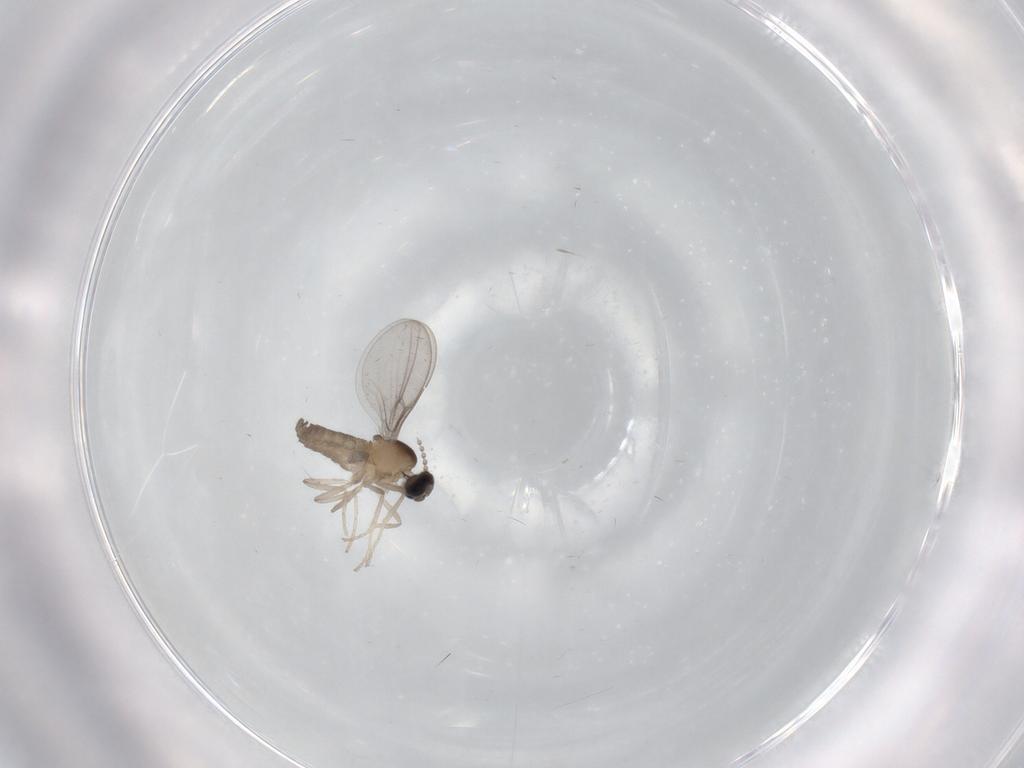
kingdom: Animalia
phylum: Arthropoda
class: Insecta
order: Diptera
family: Cecidomyiidae
